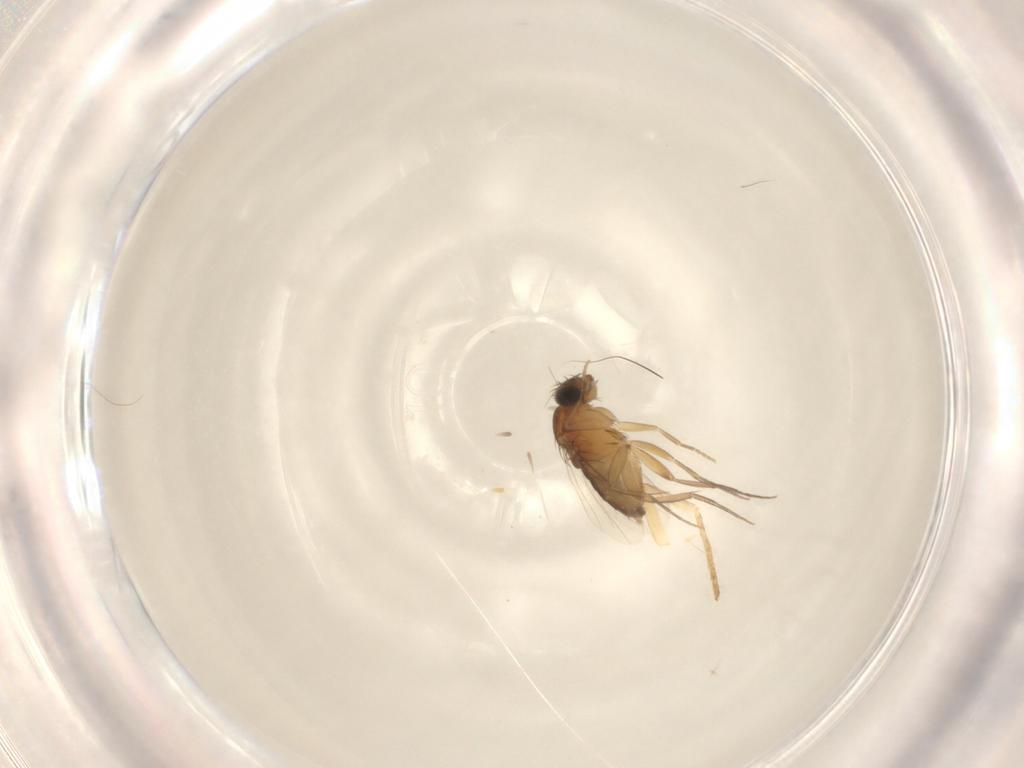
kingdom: Animalia
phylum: Arthropoda
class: Insecta
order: Diptera
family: Phoridae
